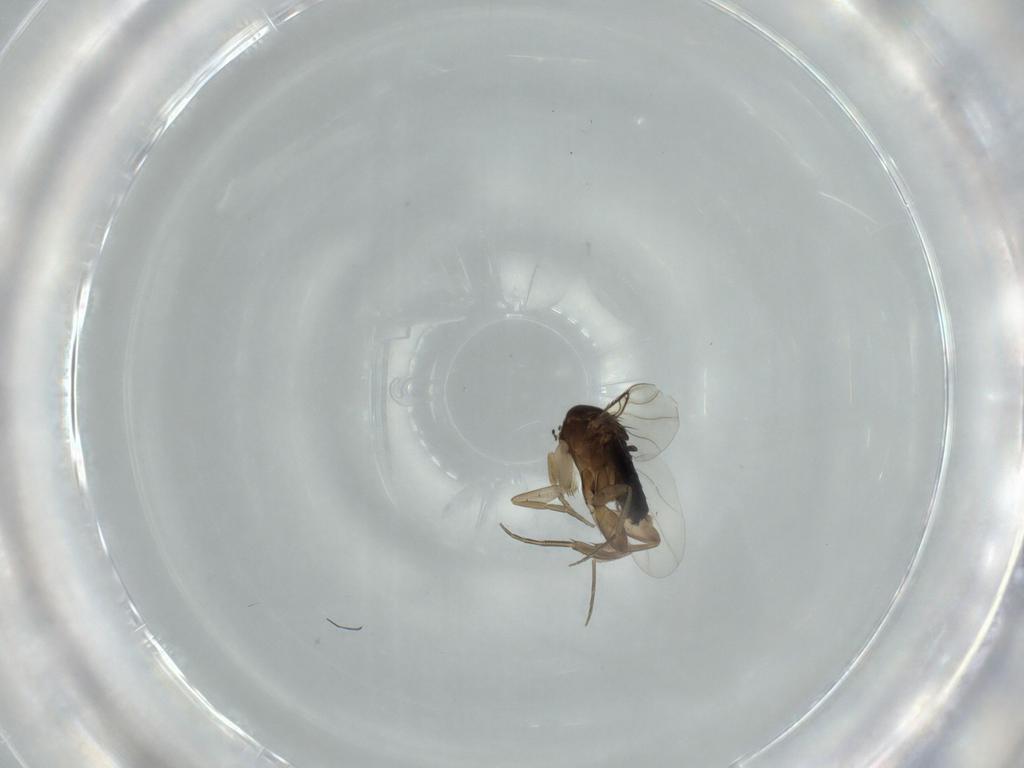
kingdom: Animalia
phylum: Arthropoda
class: Insecta
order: Diptera
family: Phoridae
